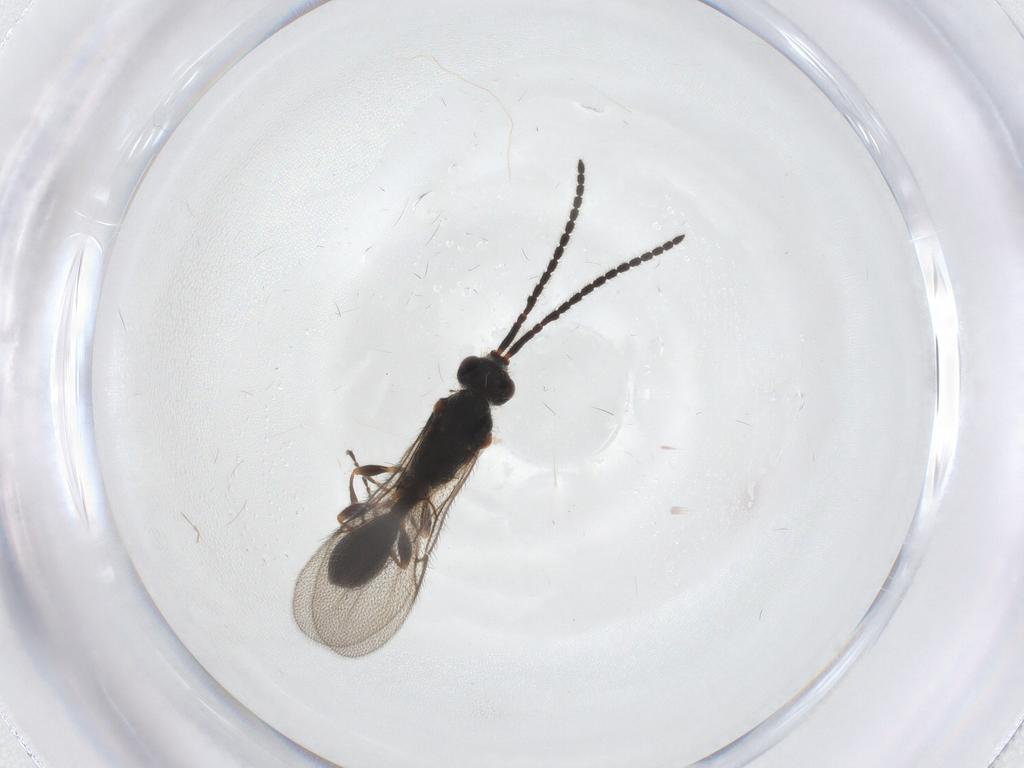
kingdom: Animalia
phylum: Arthropoda
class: Insecta
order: Hymenoptera
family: Diapriidae
